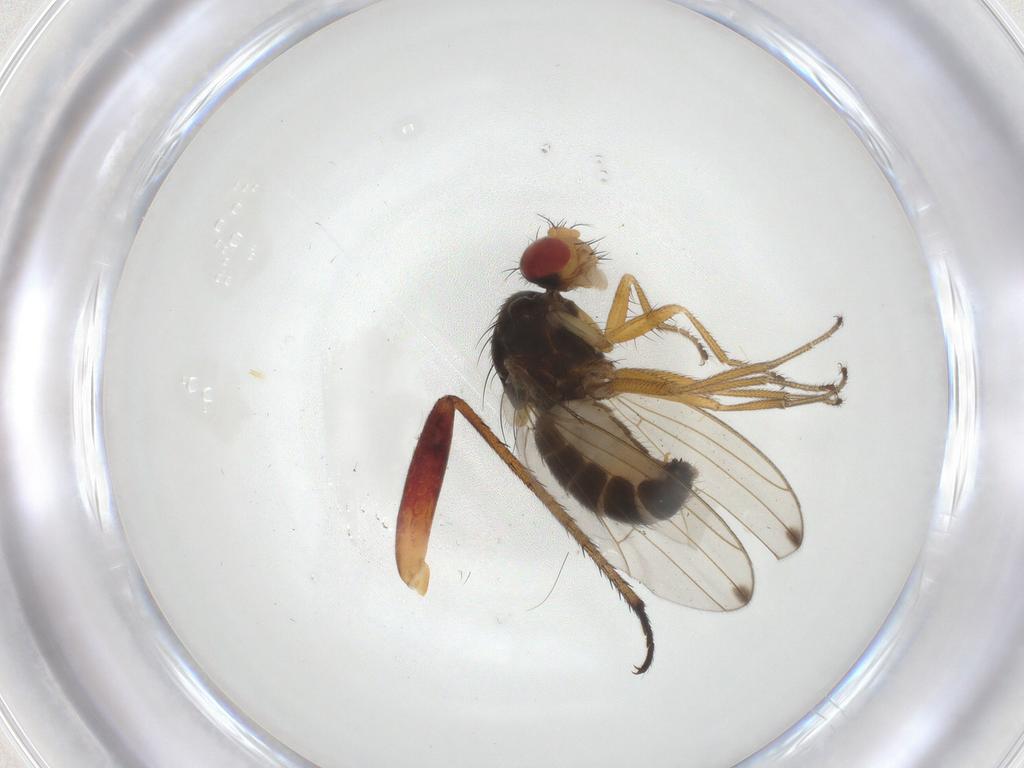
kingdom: Animalia
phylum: Arthropoda
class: Insecta
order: Diptera
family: Drosophilidae
